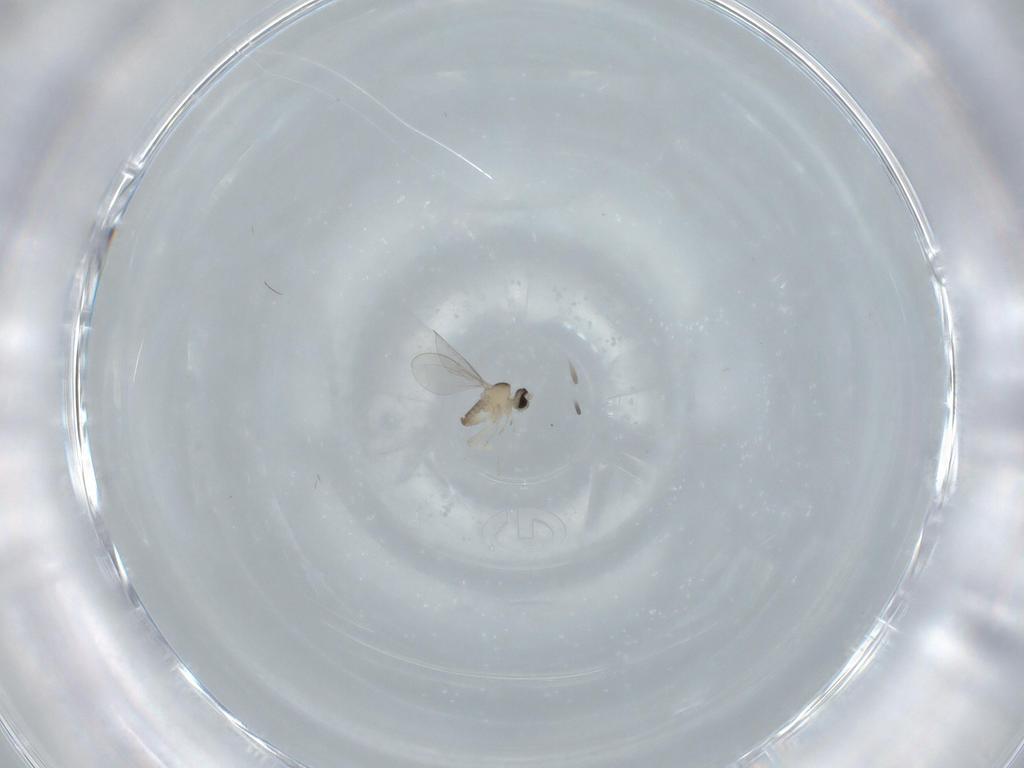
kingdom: Animalia
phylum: Arthropoda
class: Insecta
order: Diptera
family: Cecidomyiidae
